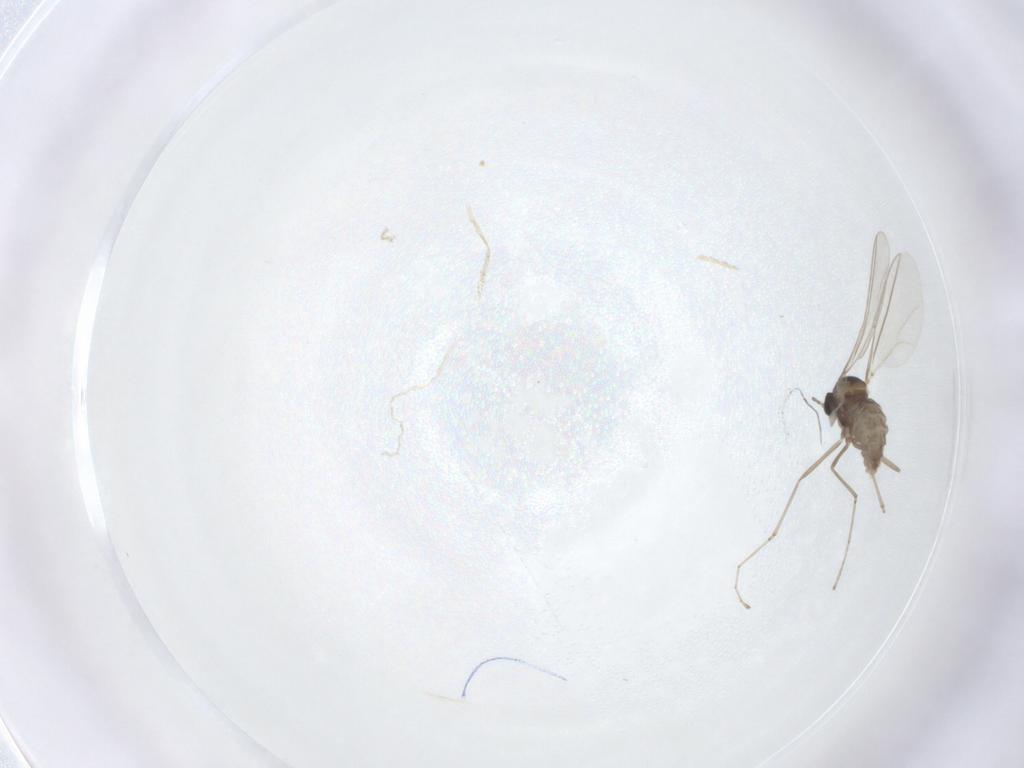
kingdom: Animalia
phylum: Arthropoda
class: Insecta
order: Diptera
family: Cecidomyiidae
